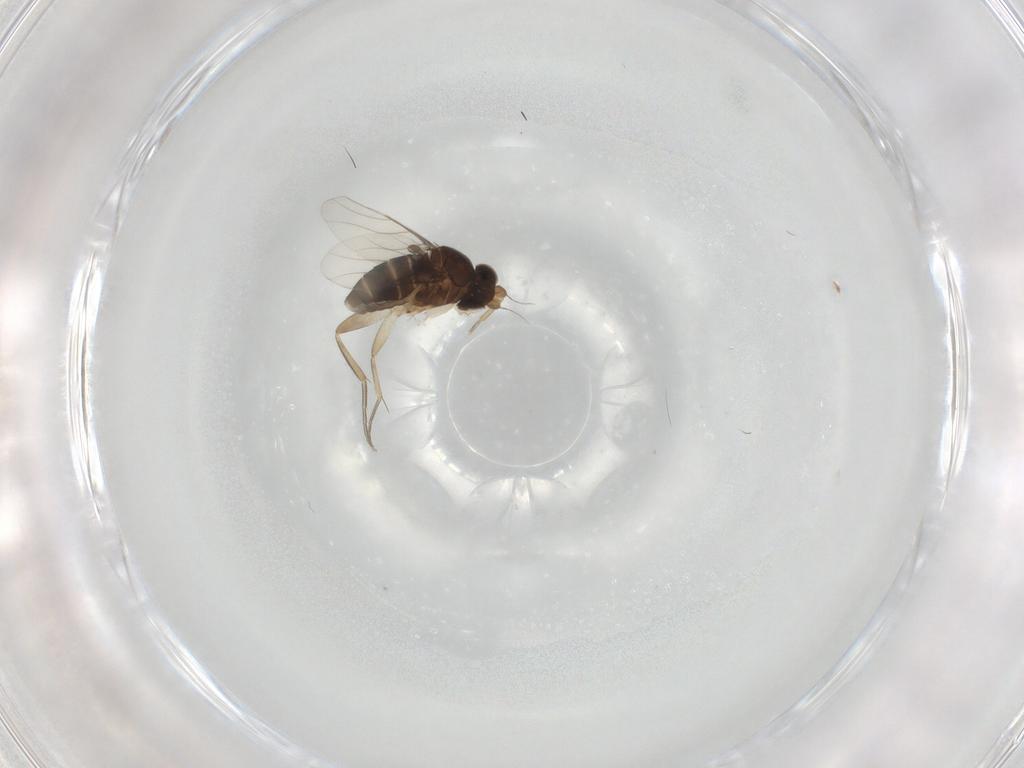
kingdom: Animalia
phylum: Arthropoda
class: Insecta
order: Diptera
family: Phoridae
